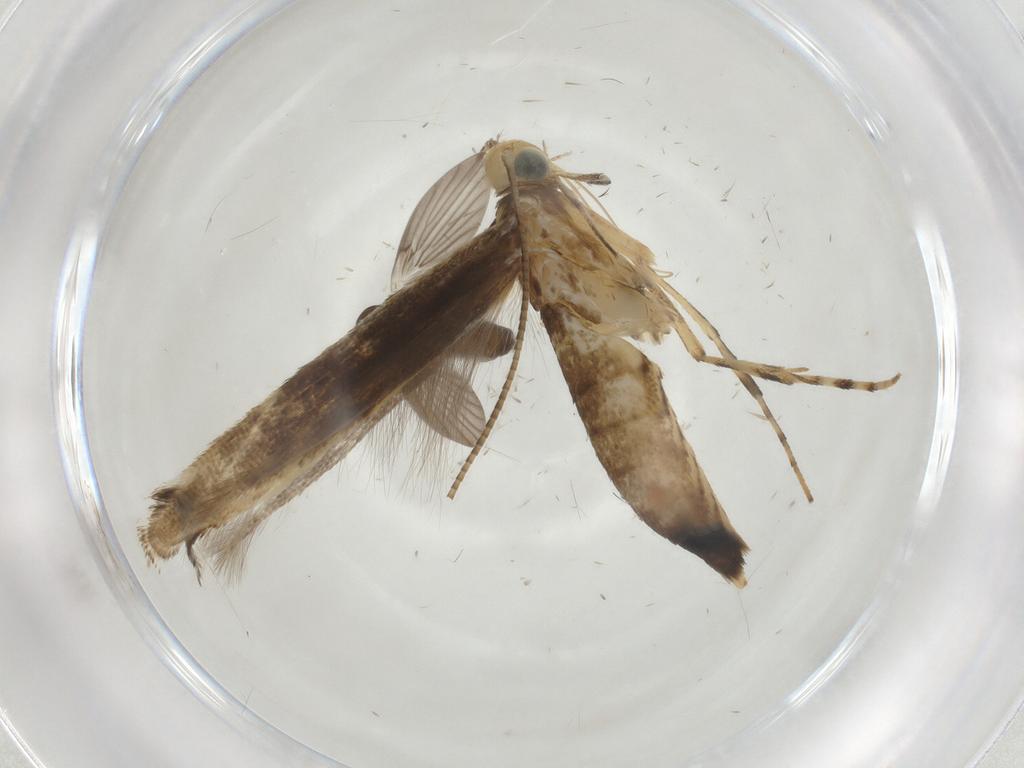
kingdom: Animalia
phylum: Arthropoda
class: Insecta
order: Lepidoptera
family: Gracillariidae
